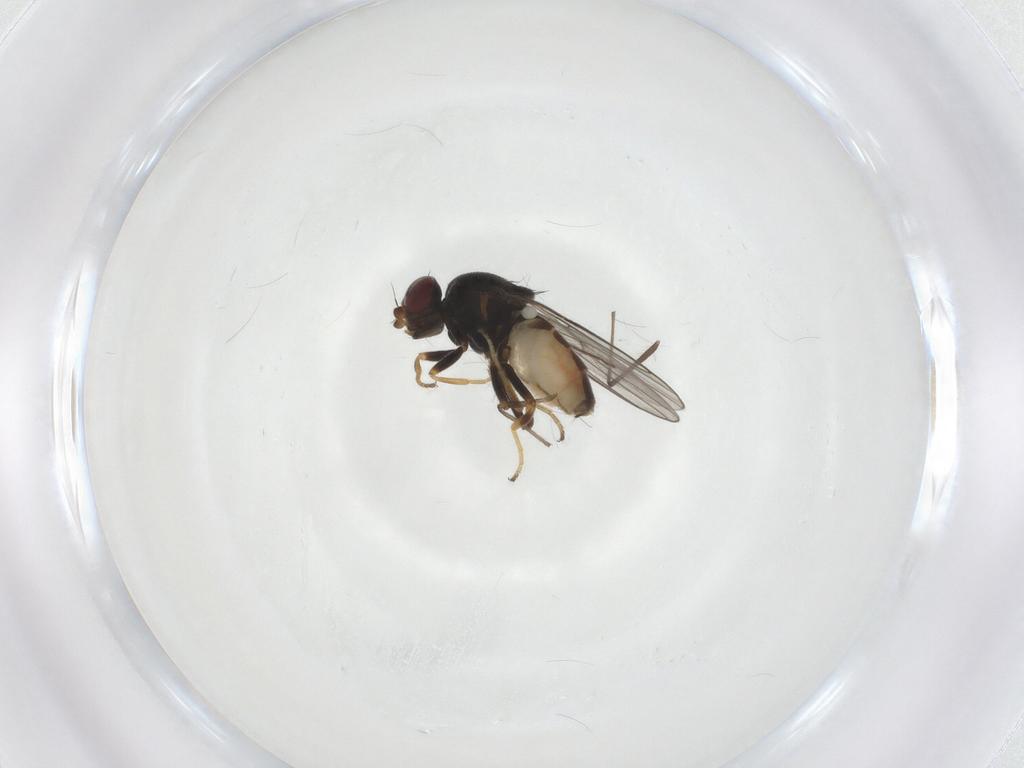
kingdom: Animalia
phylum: Arthropoda
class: Insecta
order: Diptera
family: Chloropidae
